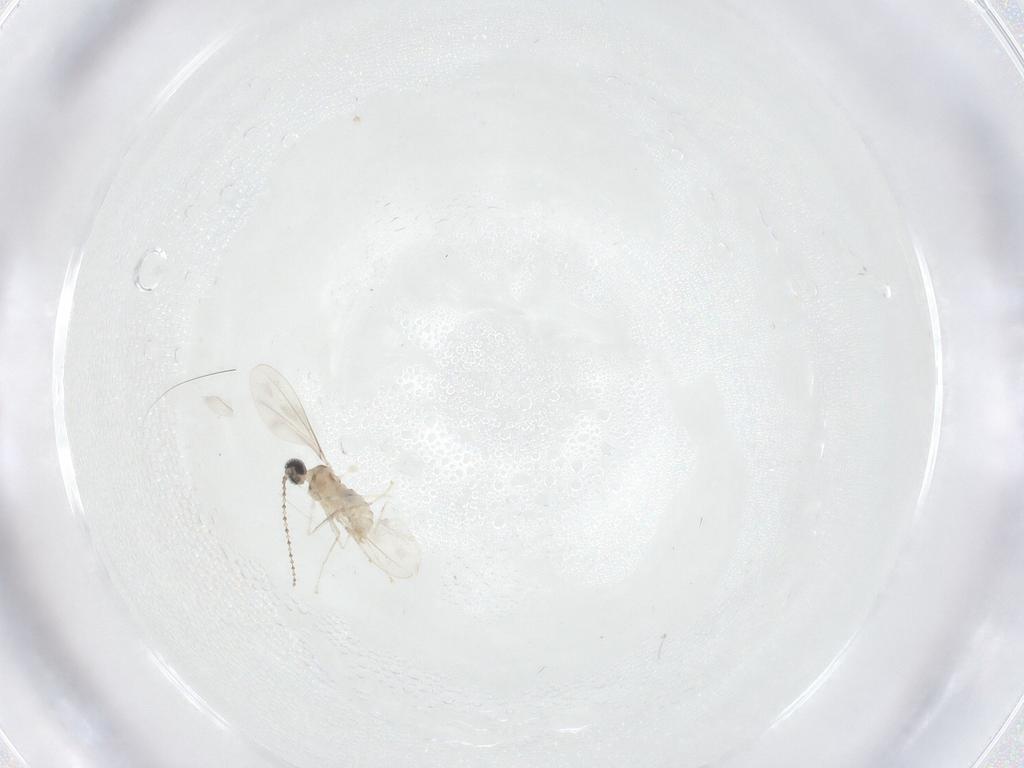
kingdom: Animalia
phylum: Arthropoda
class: Insecta
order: Diptera
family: Cecidomyiidae
